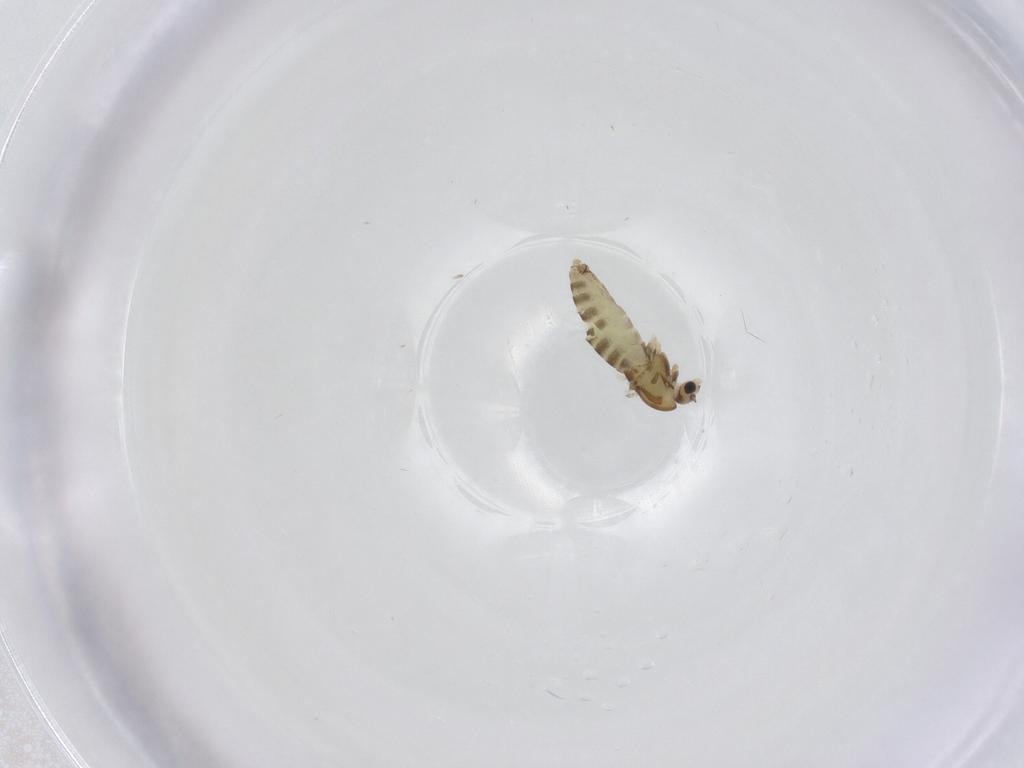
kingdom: Animalia
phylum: Arthropoda
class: Insecta
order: Diptera
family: Chironomidae
